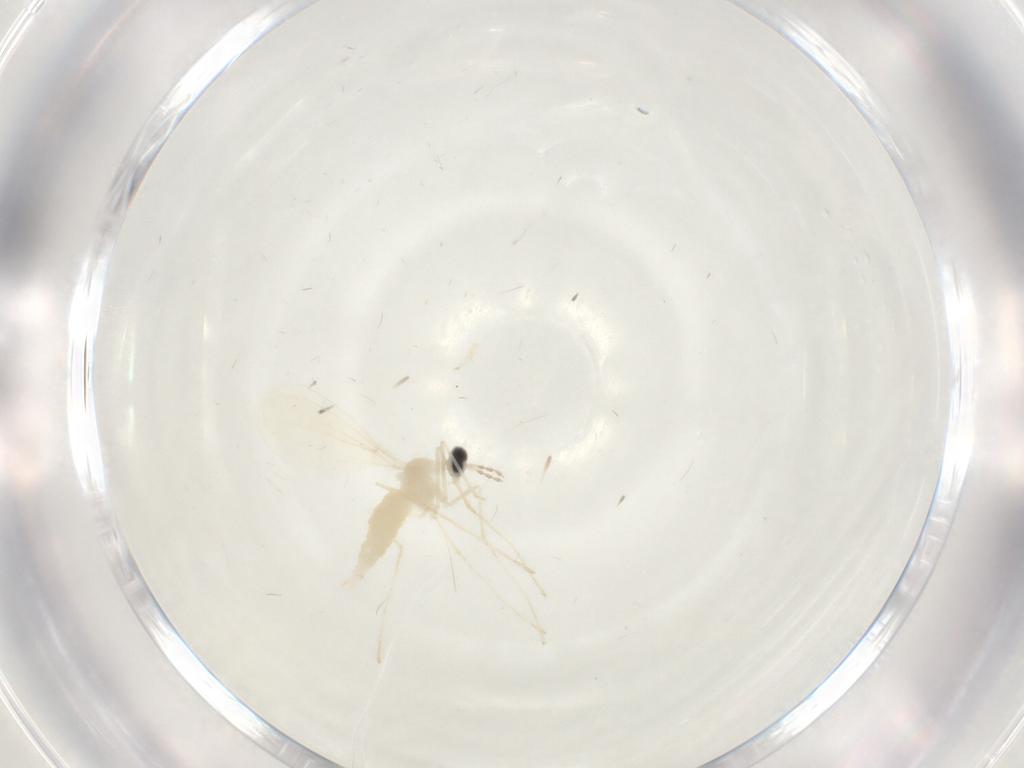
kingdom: Animalia
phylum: Arthropoda
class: Insecta
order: Diptera
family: Cecidomyiidae
